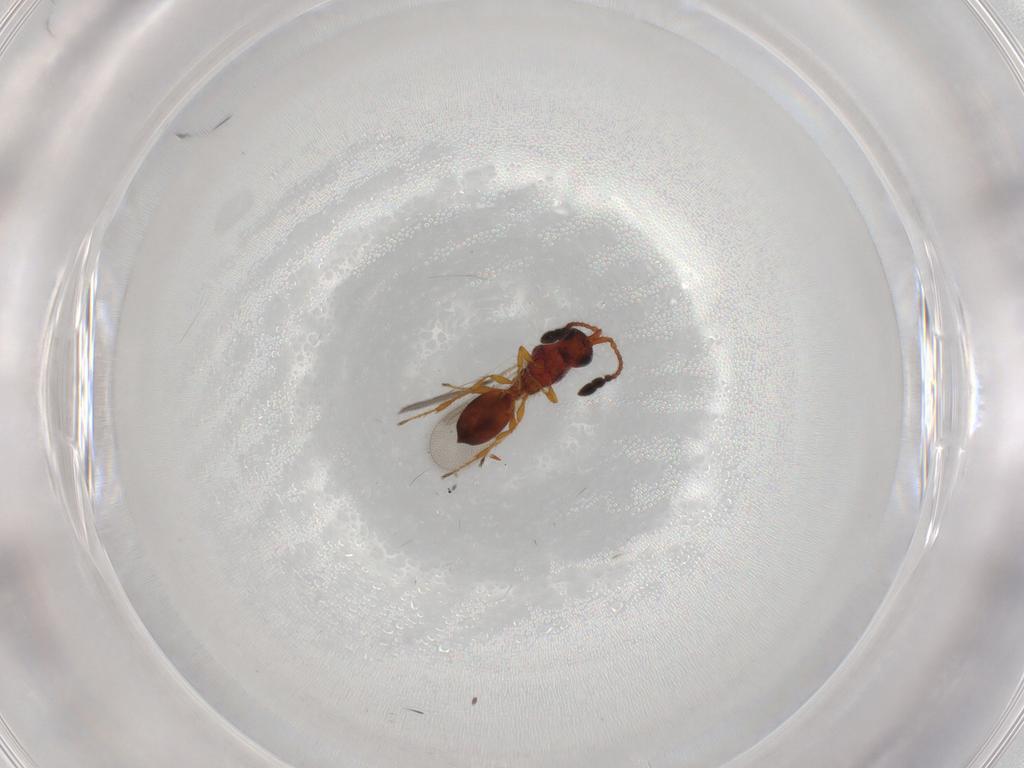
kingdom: Animalia
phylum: Arthropoda
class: Insecta
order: Hymenoptera
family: Diapriidae
